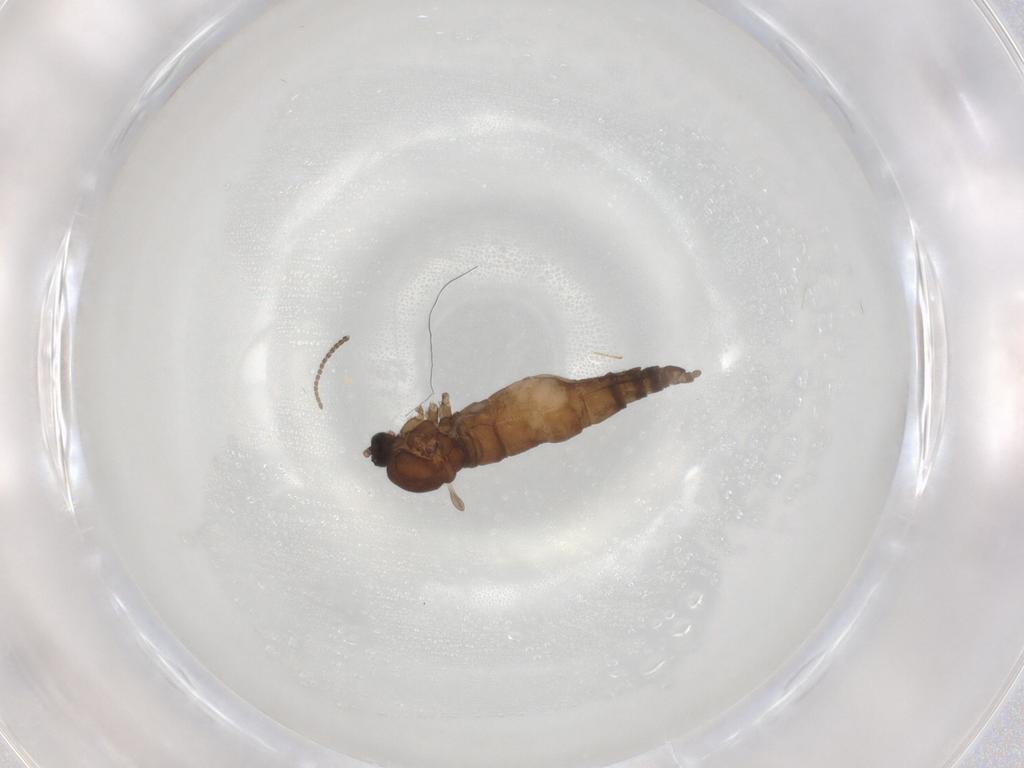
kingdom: Animalia
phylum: Arthropoda
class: Insecta
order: Diptera
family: Sciaridae
